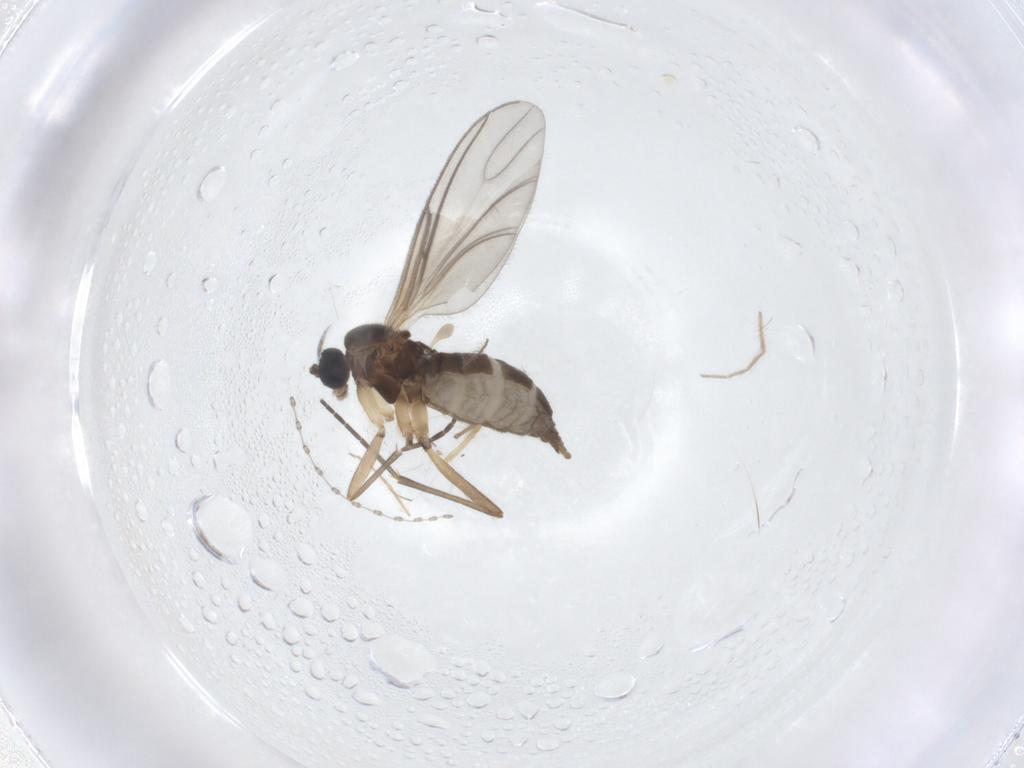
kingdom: Animalia
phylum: Arthropoda
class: Insecta
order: Diptera
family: Sciaridae
